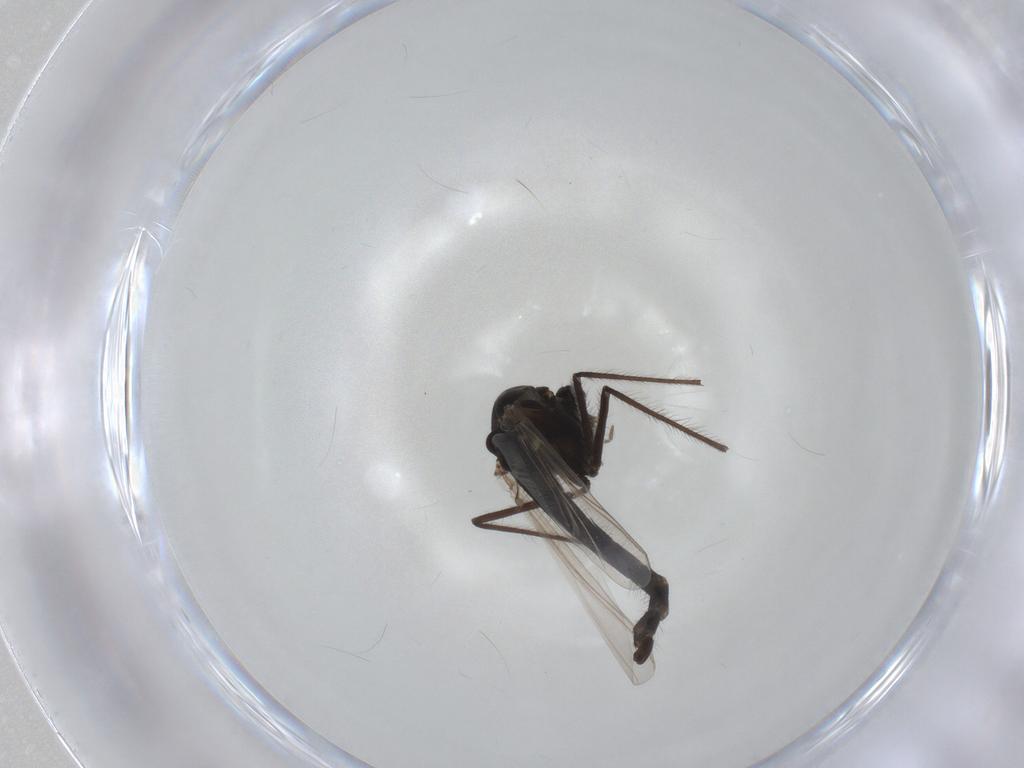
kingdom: Animalia
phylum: Arthropoda
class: Insecta
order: Diptera
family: Chironomidae
